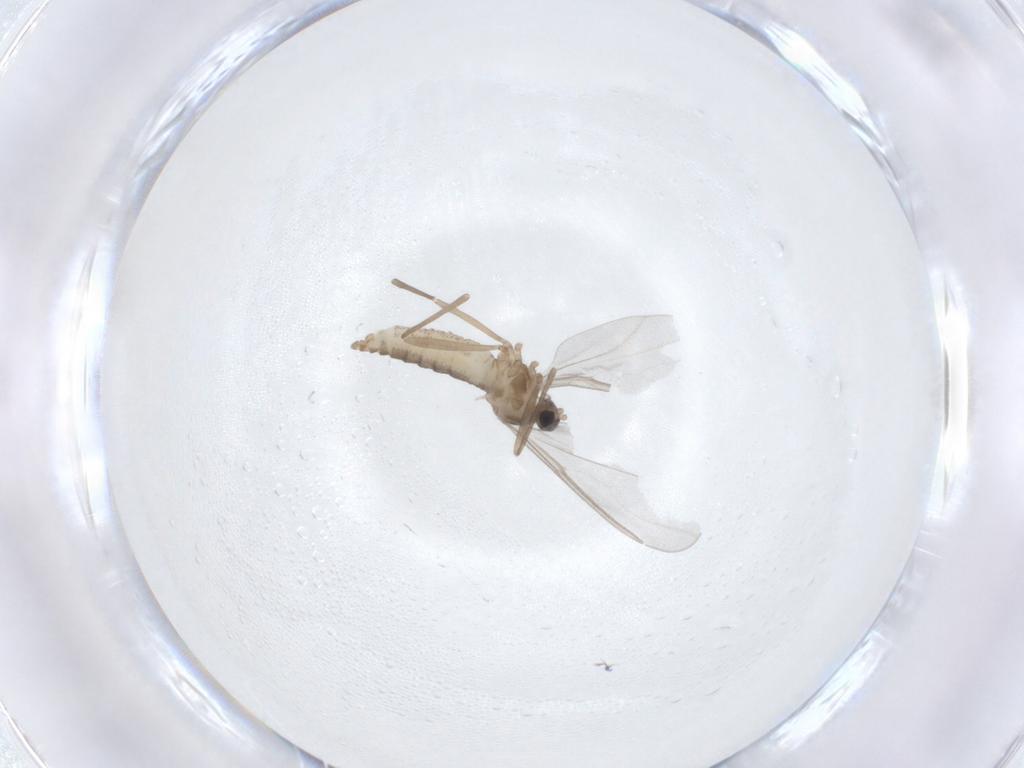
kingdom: Animalia
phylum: Arthropoda
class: Insecta
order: Diptera
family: Cecidomyiidae
